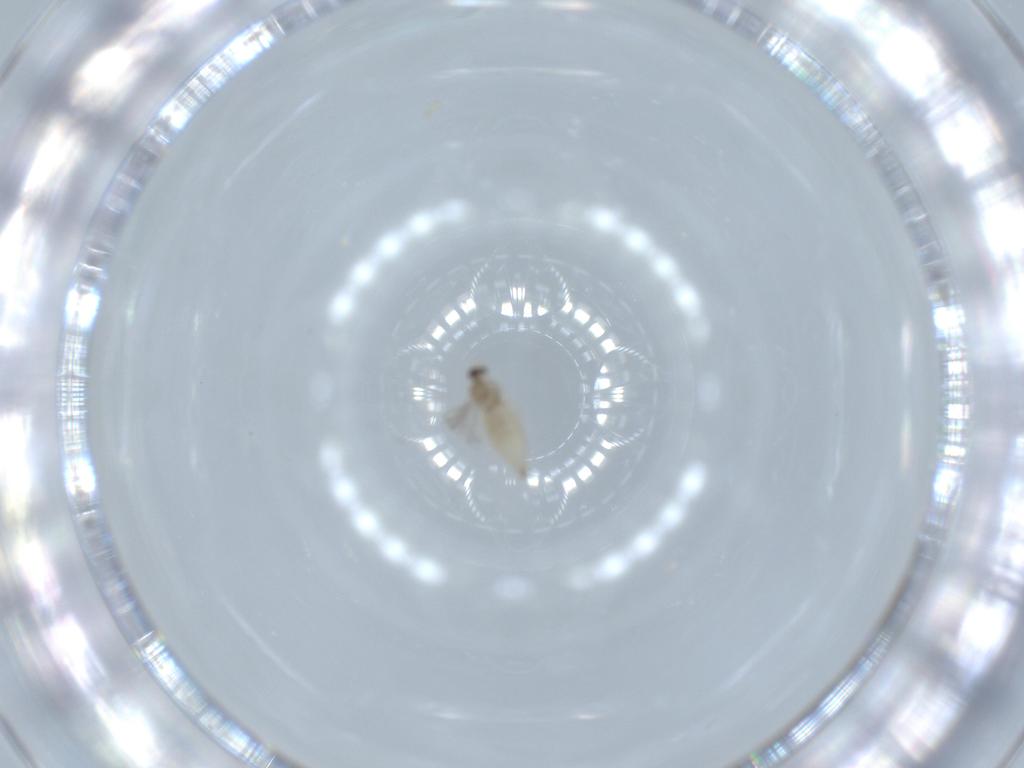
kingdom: Animalia
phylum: Arthropoda
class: Insecta
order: Diptera
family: Cecidomyiidae
